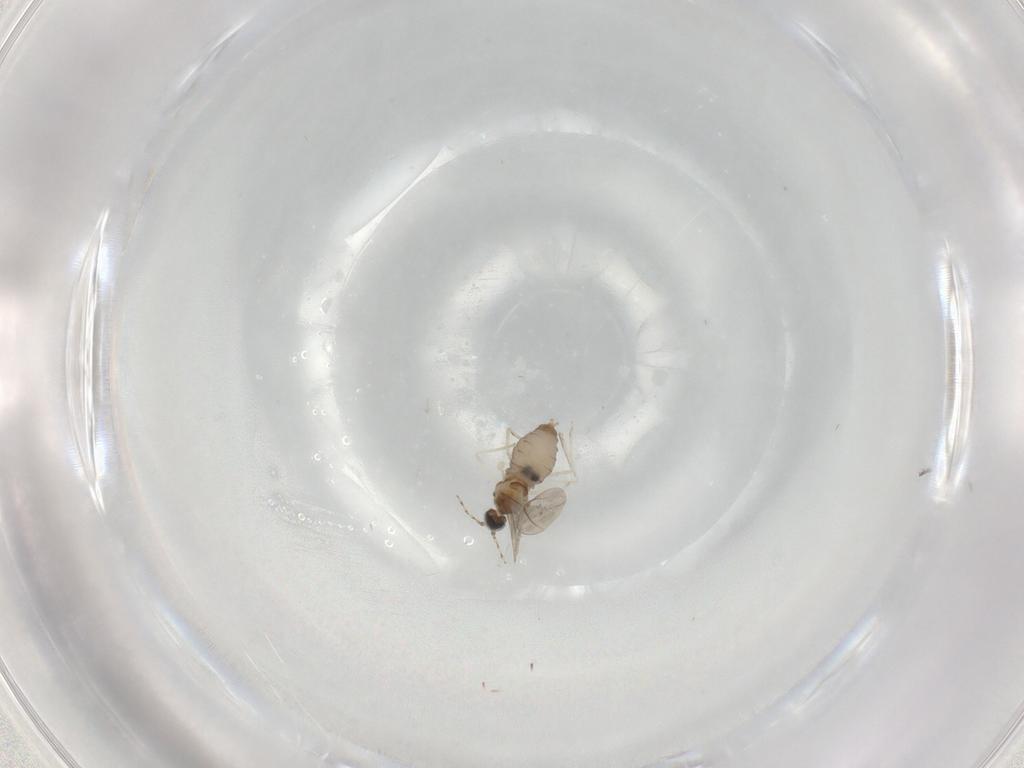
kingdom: Animalia
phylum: Arthropoda
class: Insecta
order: Diptera
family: Cecidomyiidae
